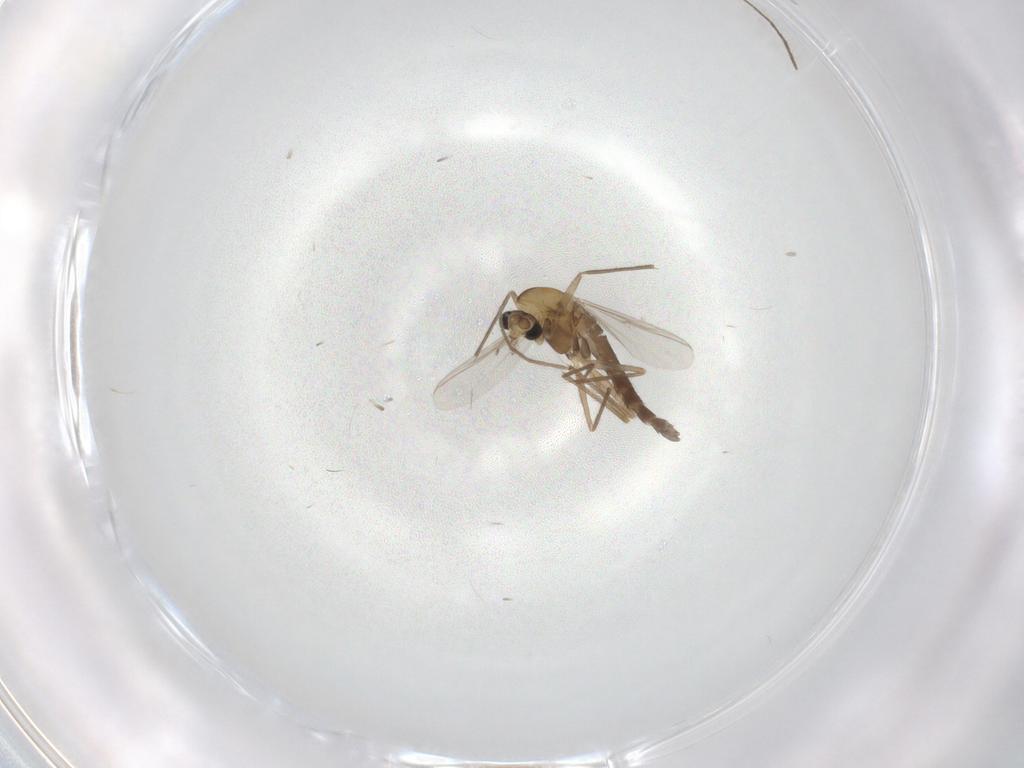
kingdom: Animalia
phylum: Arthropoda
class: Insecta
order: Diptera
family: Chironomidae
